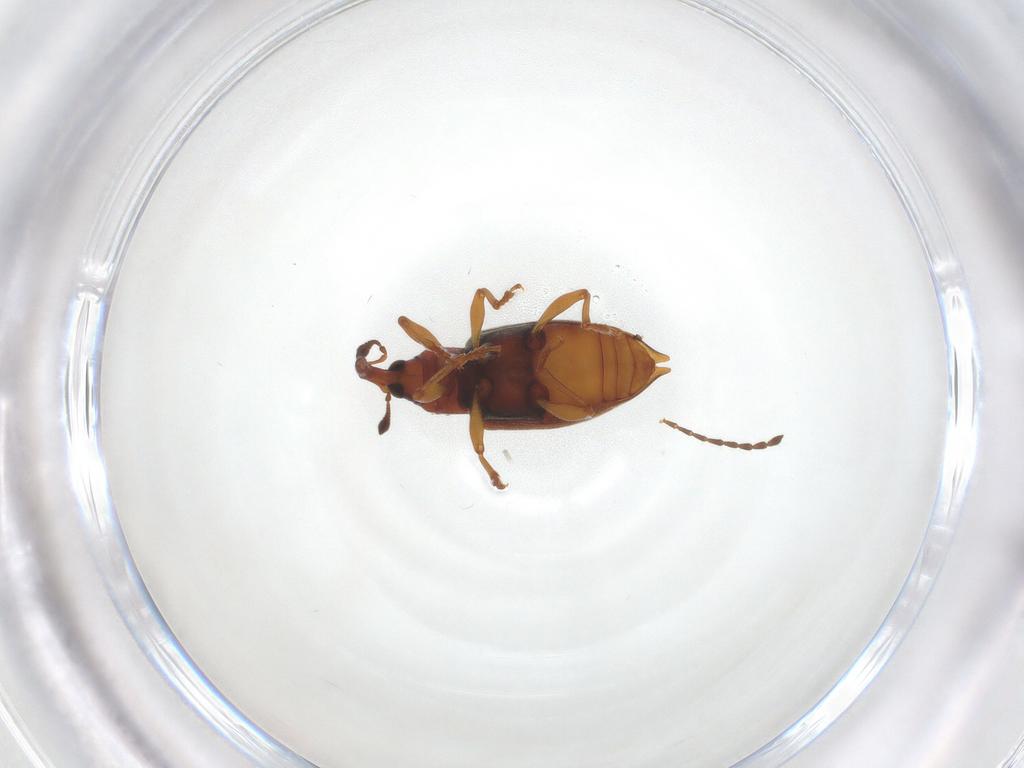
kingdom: Animalia
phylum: Arthropoda
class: Insecta
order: Coleoptera
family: Curculionidae
